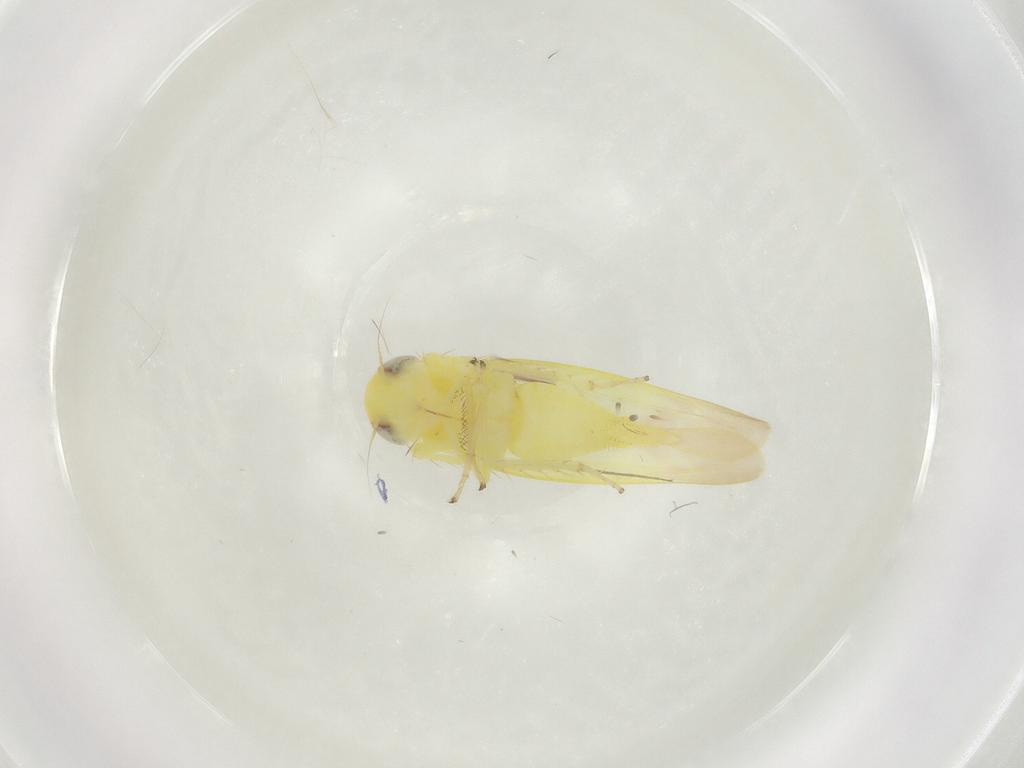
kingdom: Animalia
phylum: Arthropoda
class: Insecta
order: Hemiptera
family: Cicadellidae
